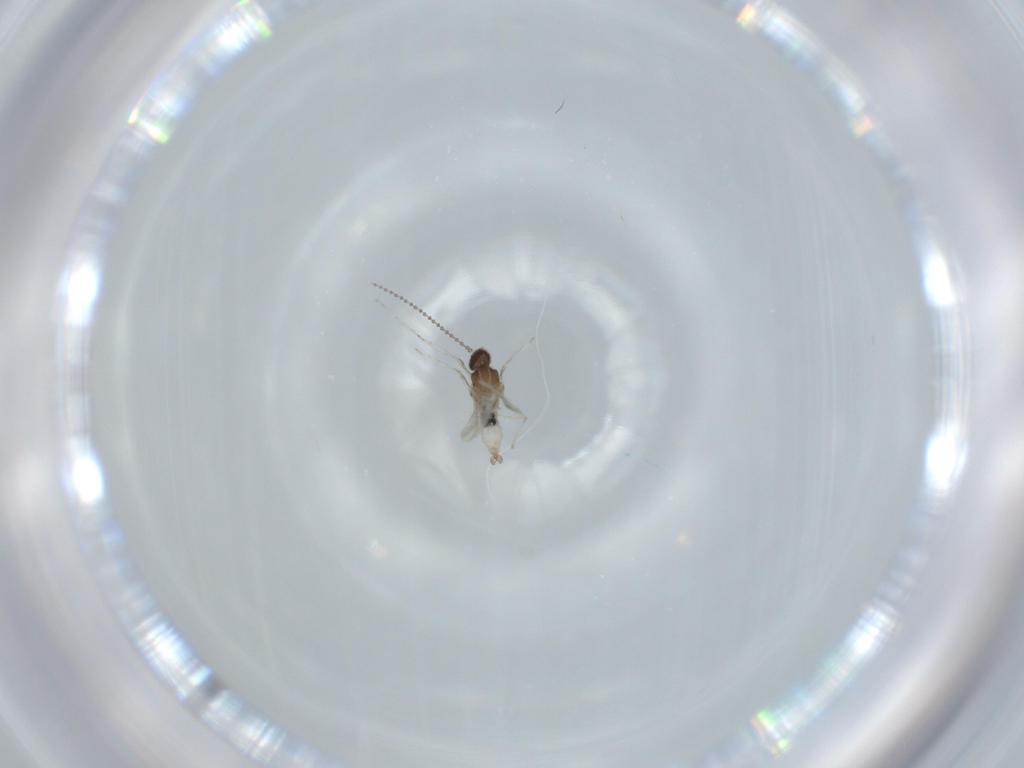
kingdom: Animalia
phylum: Arthropoda
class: Insecta
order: Diptera
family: Cecidomyiidae
